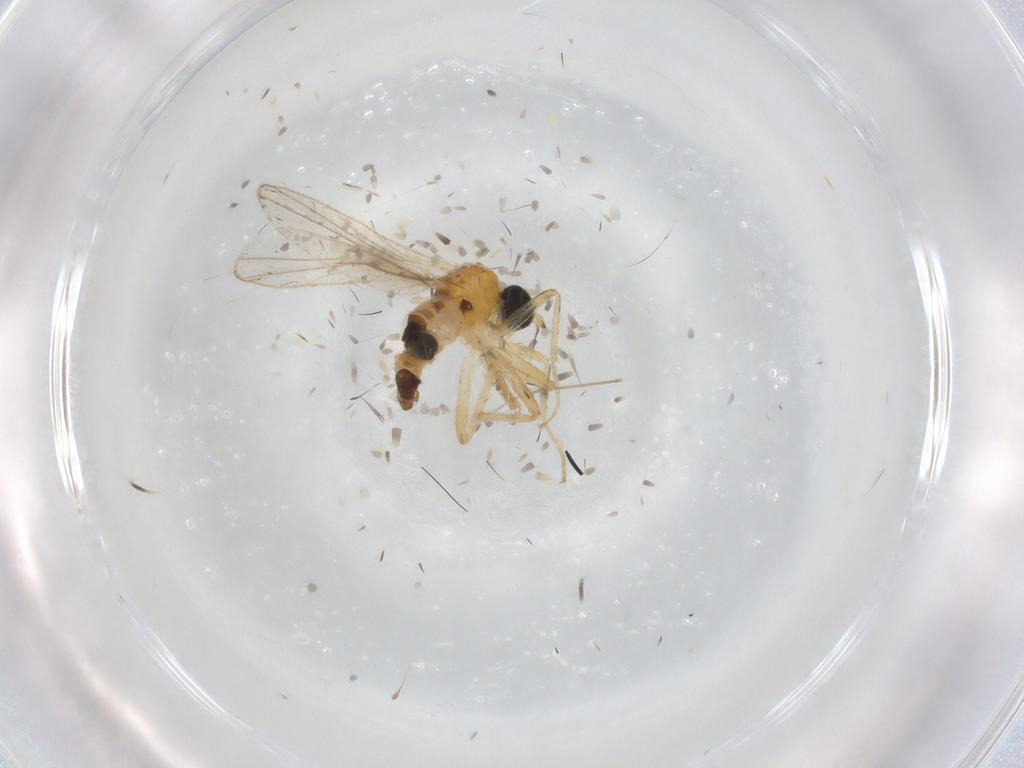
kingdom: Animalia
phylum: Arthropoda
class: Insecta
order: Diptera
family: Hybotidae
